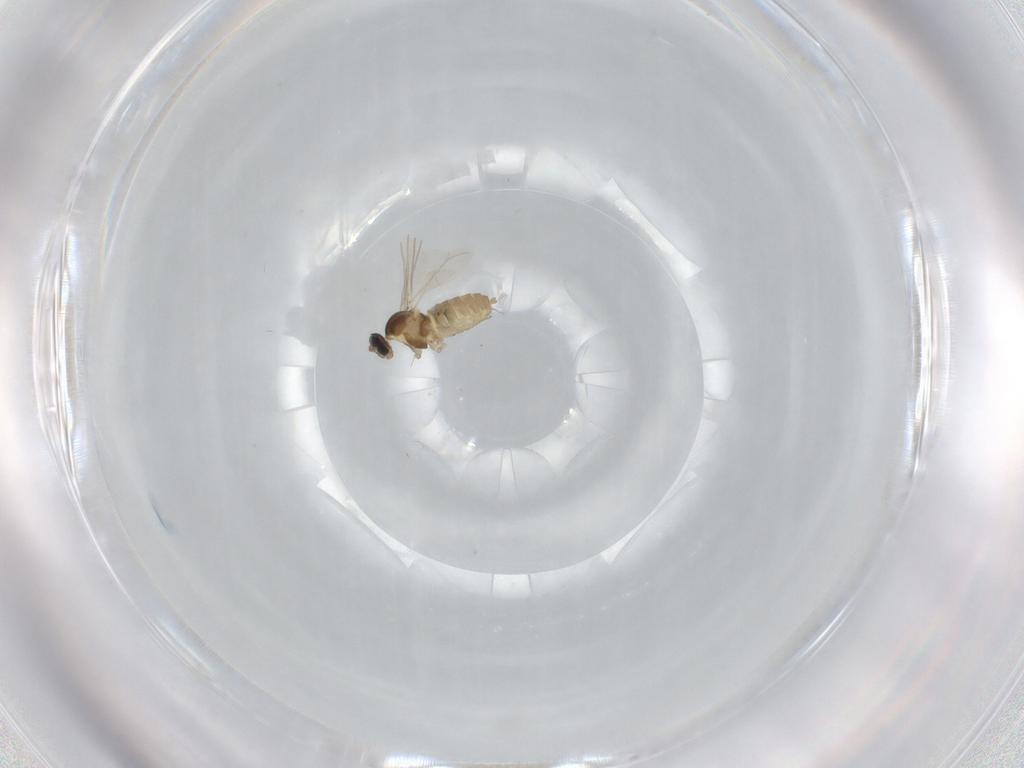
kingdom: Animalia
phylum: Arthropoda
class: Insecta
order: Diptera
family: Cecidomyiidae
